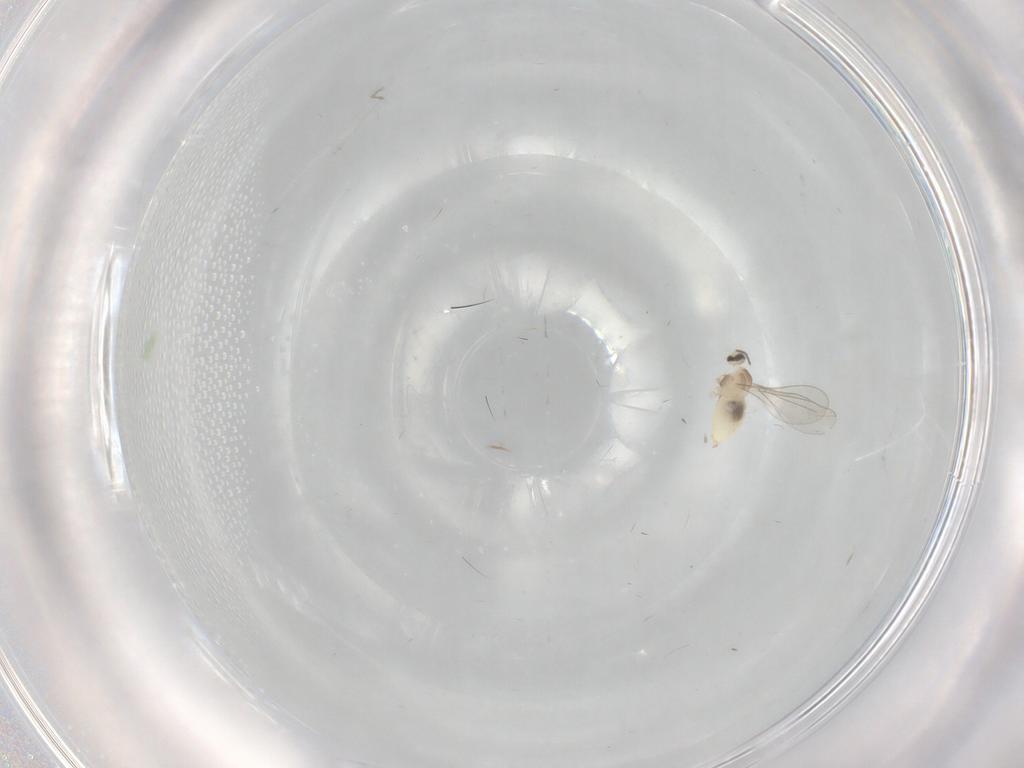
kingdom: Animalia
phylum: Arthropoda
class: Insecta
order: Diptera
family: Cecidomyiidae
